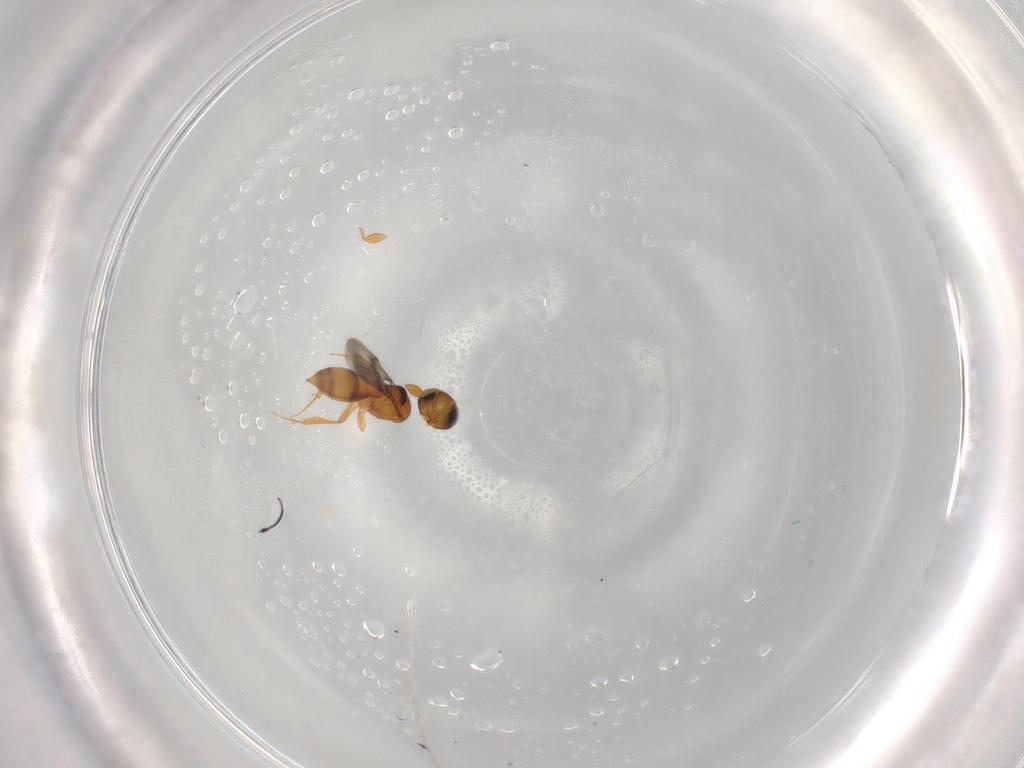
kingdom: Animalia
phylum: Arthropoda
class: Insecta
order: Hymenoptera
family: Scelionidae
